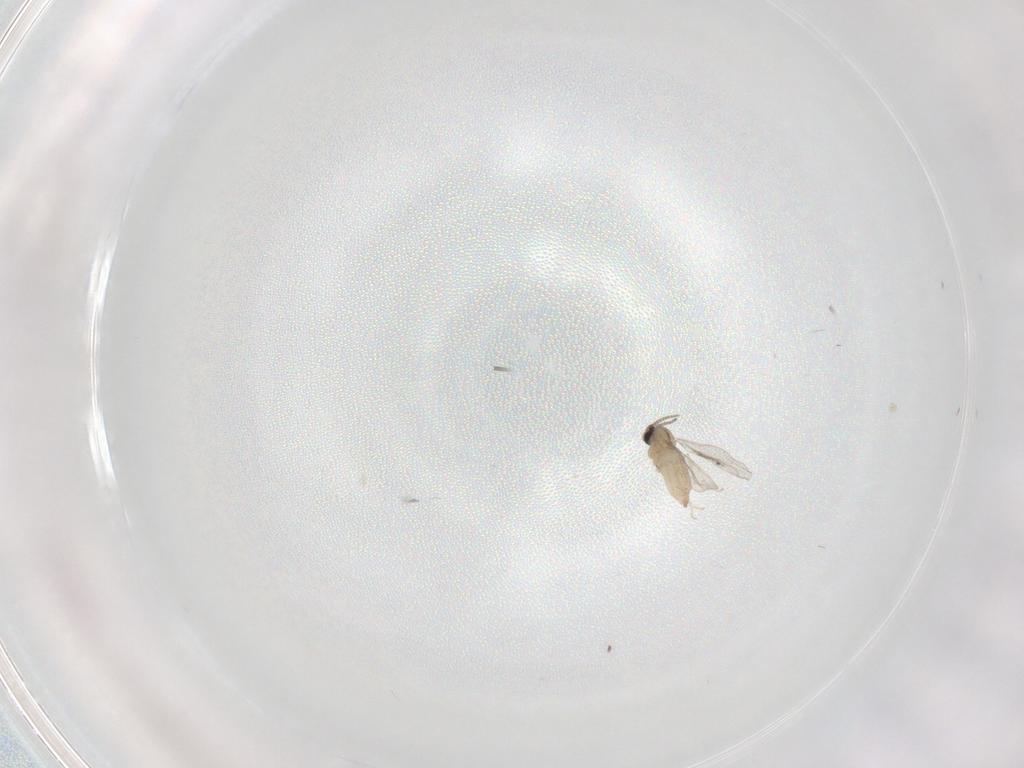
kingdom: Animalia
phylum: Arthropoda
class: Insecta
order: Diptera
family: Cecidomyiidae
